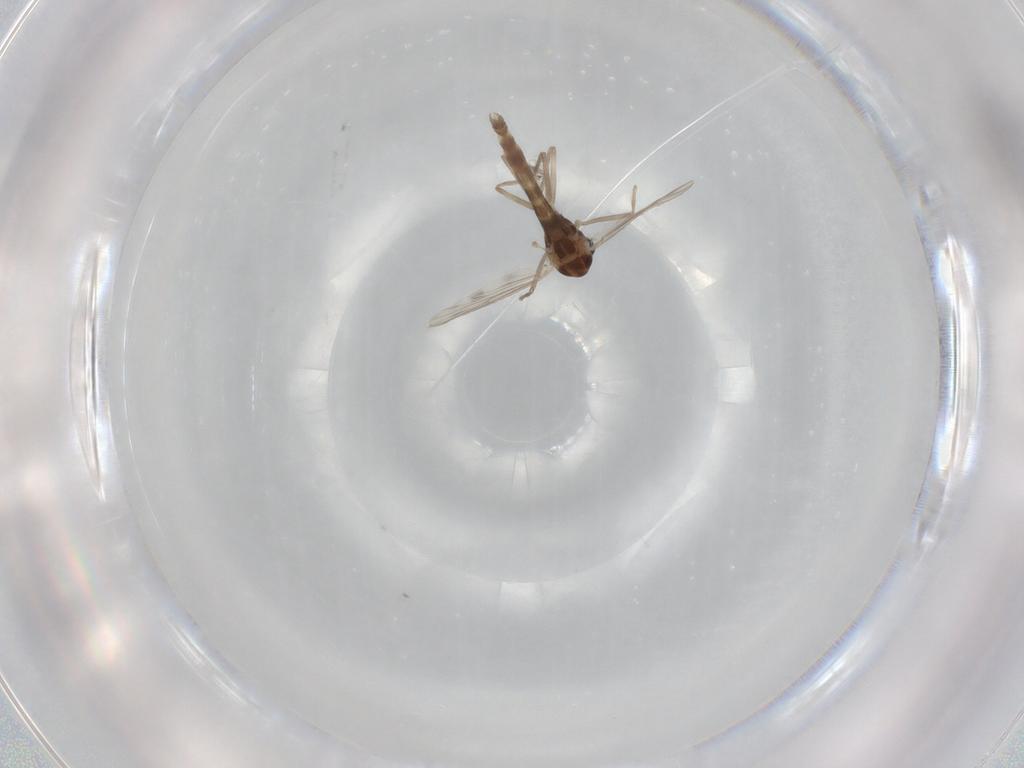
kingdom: Animalia
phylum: Arthropoda
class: Insecta
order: Diptera
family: Chironomidae
